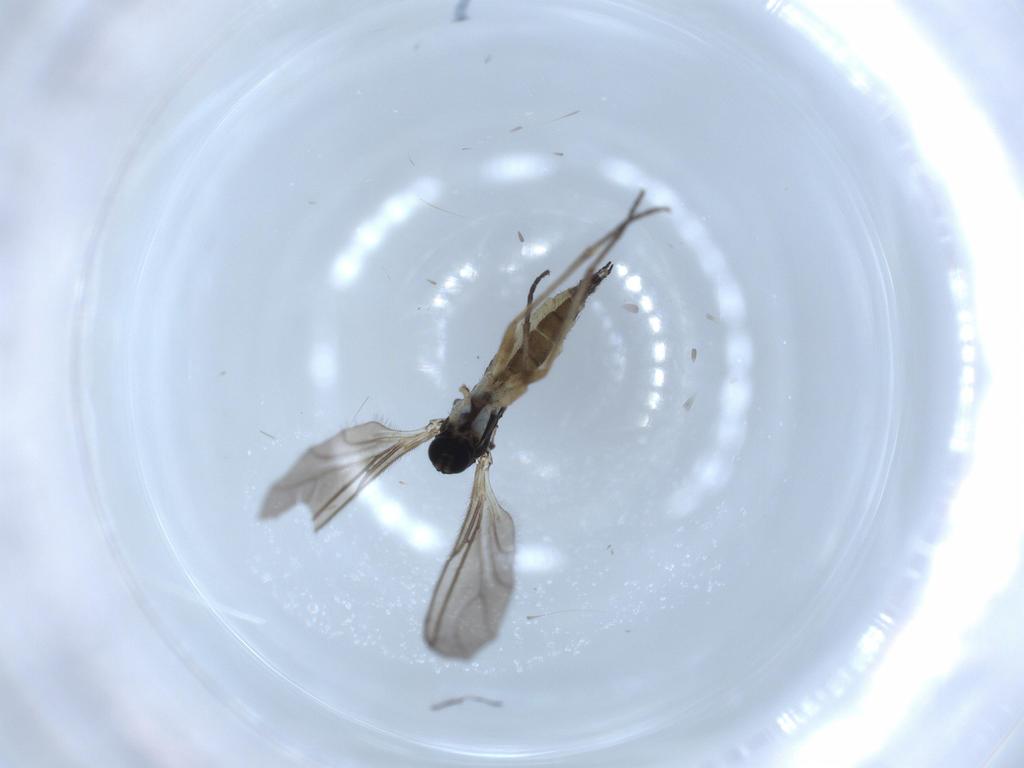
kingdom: Animalia
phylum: Arthropoda
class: Insecta
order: Diptera
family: Sciaridae
